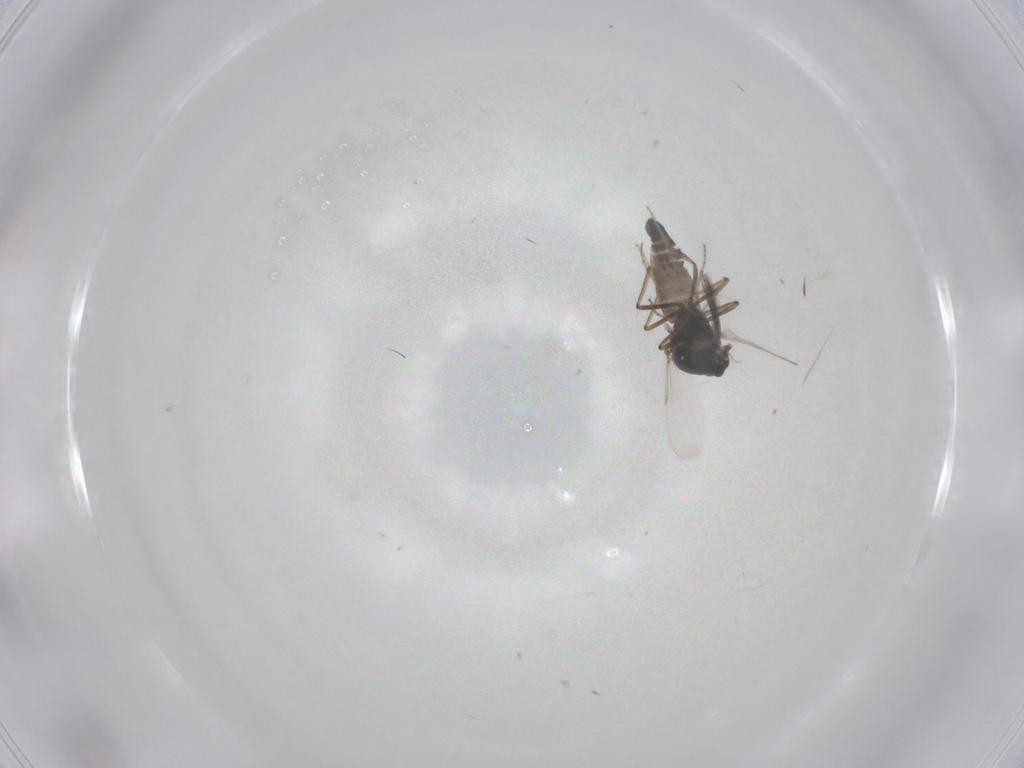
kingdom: Animalia
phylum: Arthropoda
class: Insecta
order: Diptera
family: Ceratopogonidae
